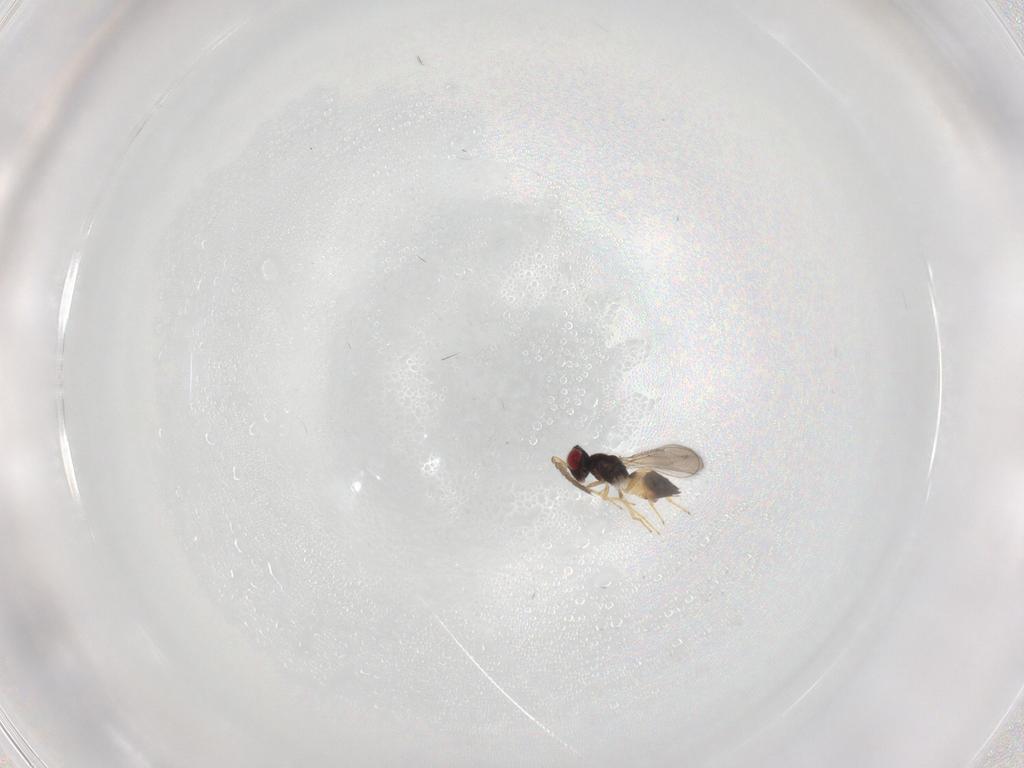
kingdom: Animalia
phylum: Arthropoda
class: Insecta
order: Hymenoptera
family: Eulophidae
